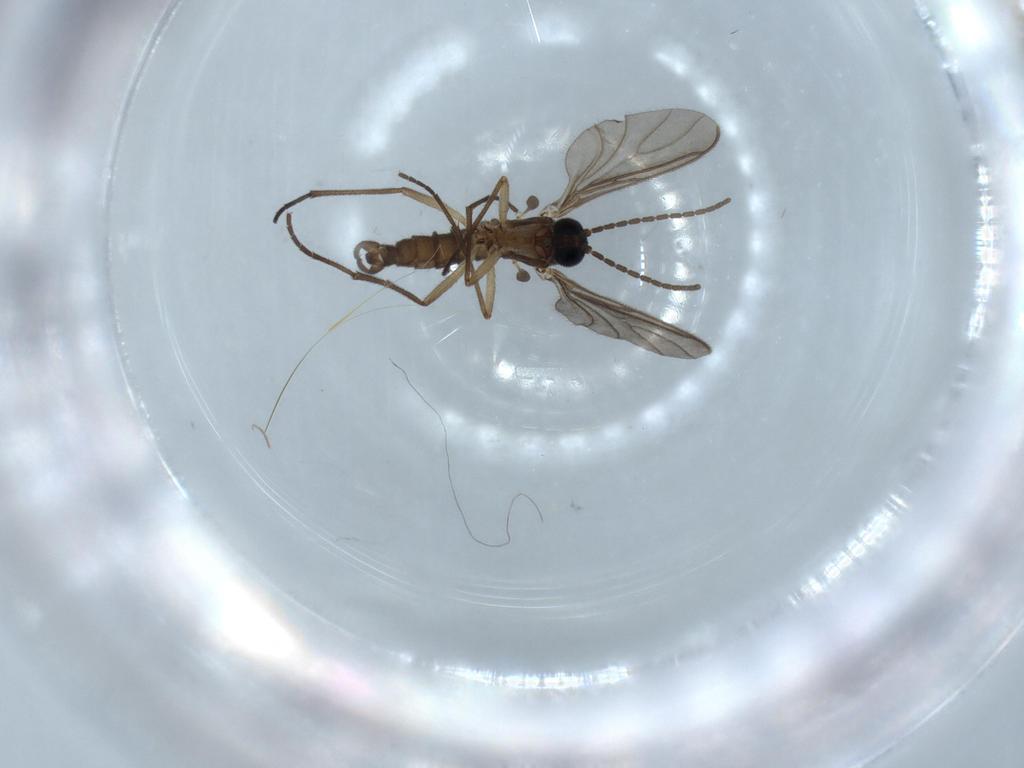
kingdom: Animalia
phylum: Arthropoda
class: Insecta
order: Diptera
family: Sciaridae
